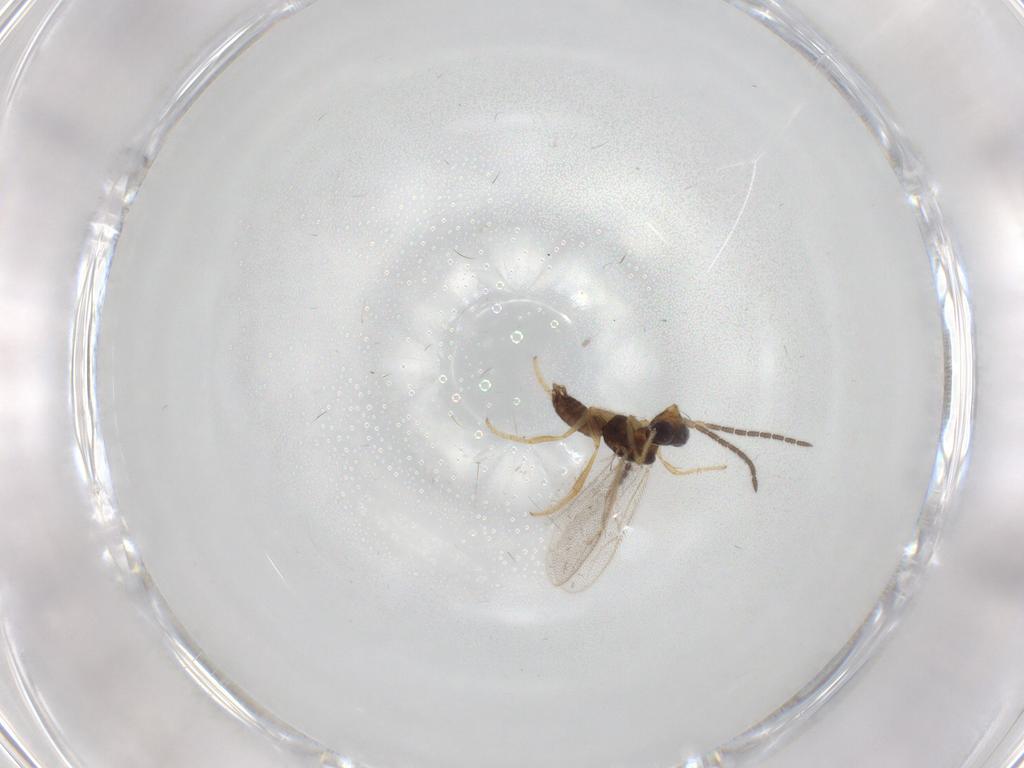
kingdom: Animalia
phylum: Arthropoda
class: Insecta
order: Hymenoptera
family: Dryinidae
